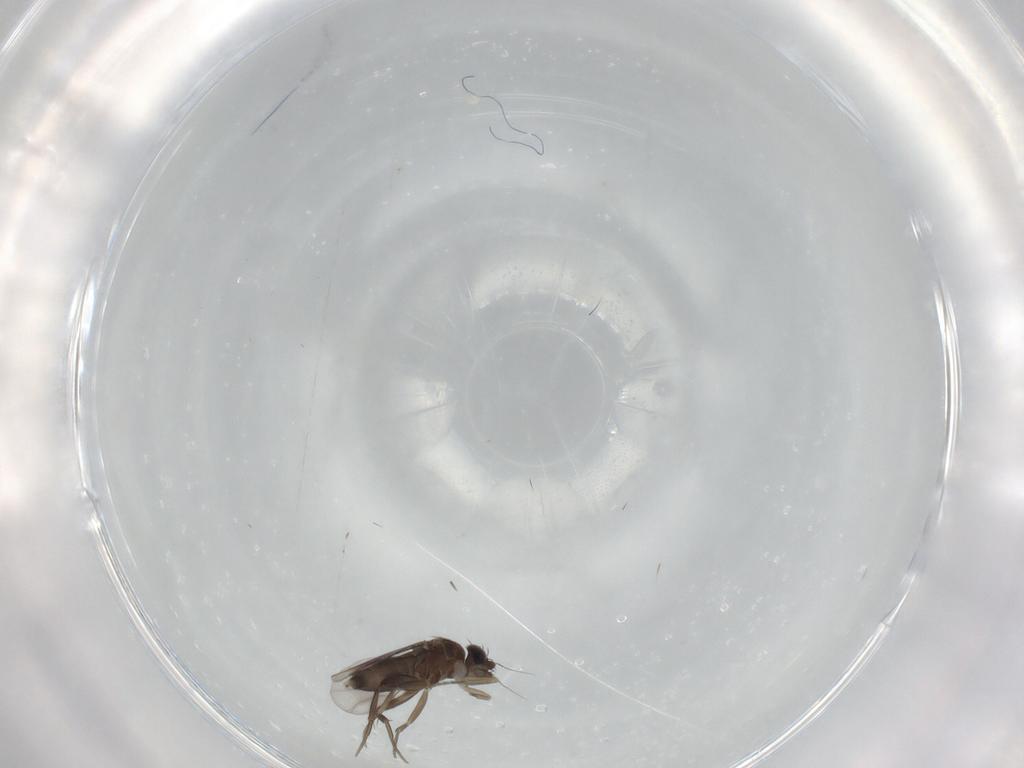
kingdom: Animalia
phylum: Arthropoda
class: Insecta
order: Diptera
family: Phoridae
